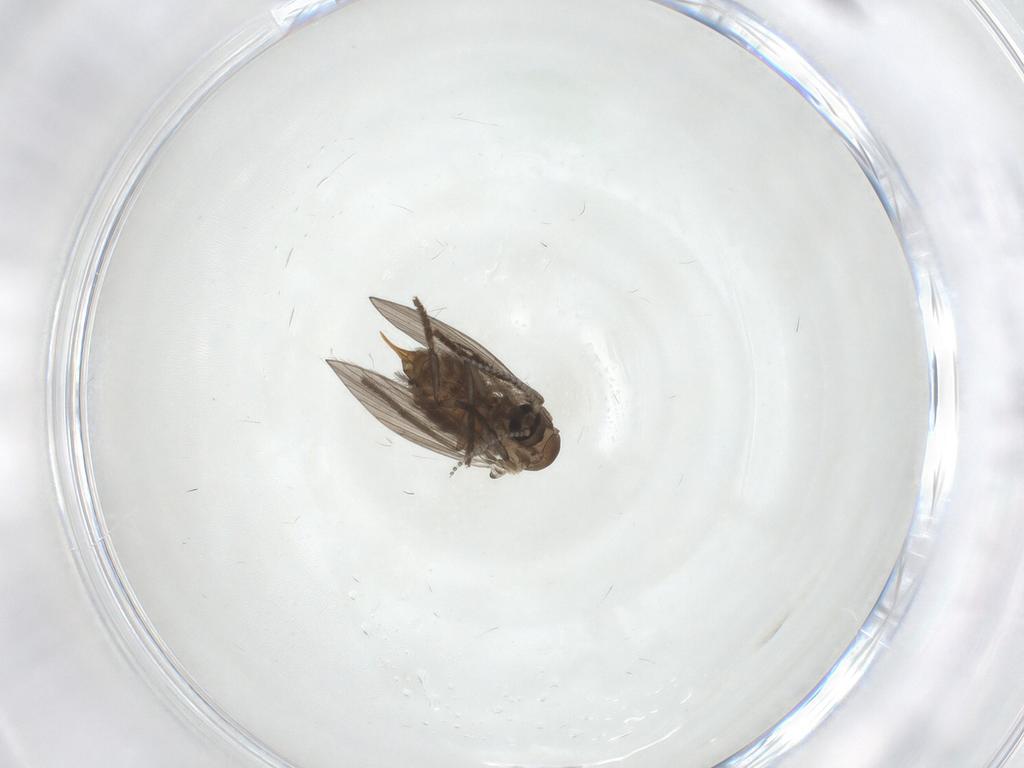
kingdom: Animalia
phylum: Arthropoda
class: Insecta
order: Diptera
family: Psychodidae
